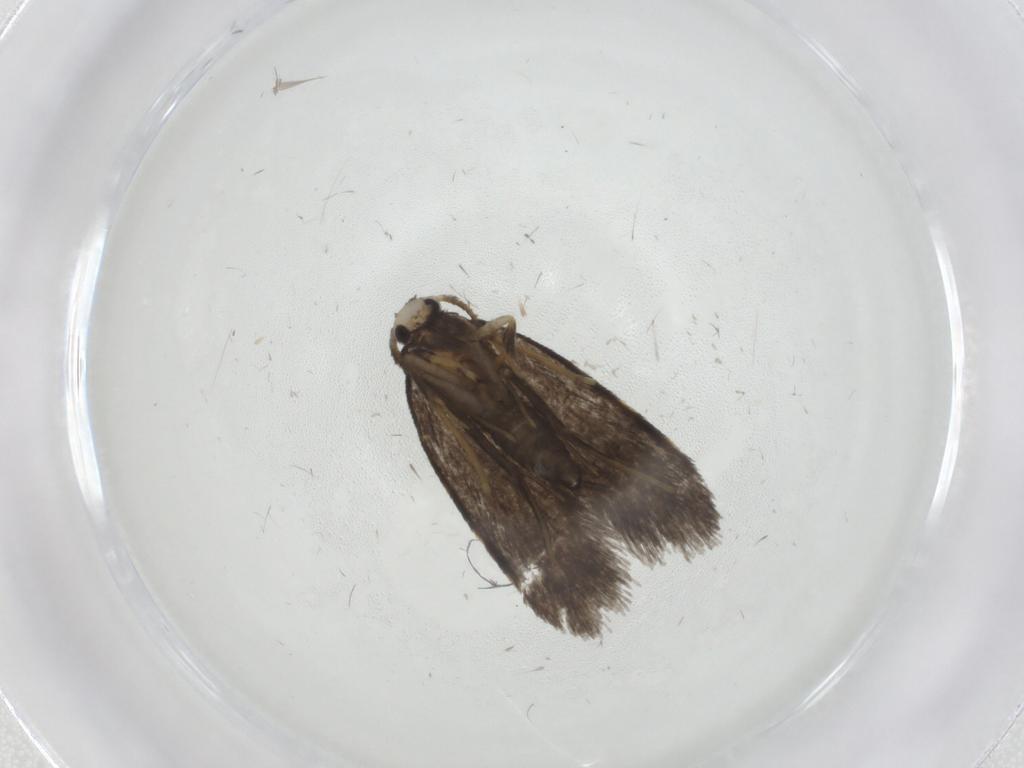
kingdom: Animalia
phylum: Arthropoda
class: Insecta
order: Lepidoptera
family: Psychidae
